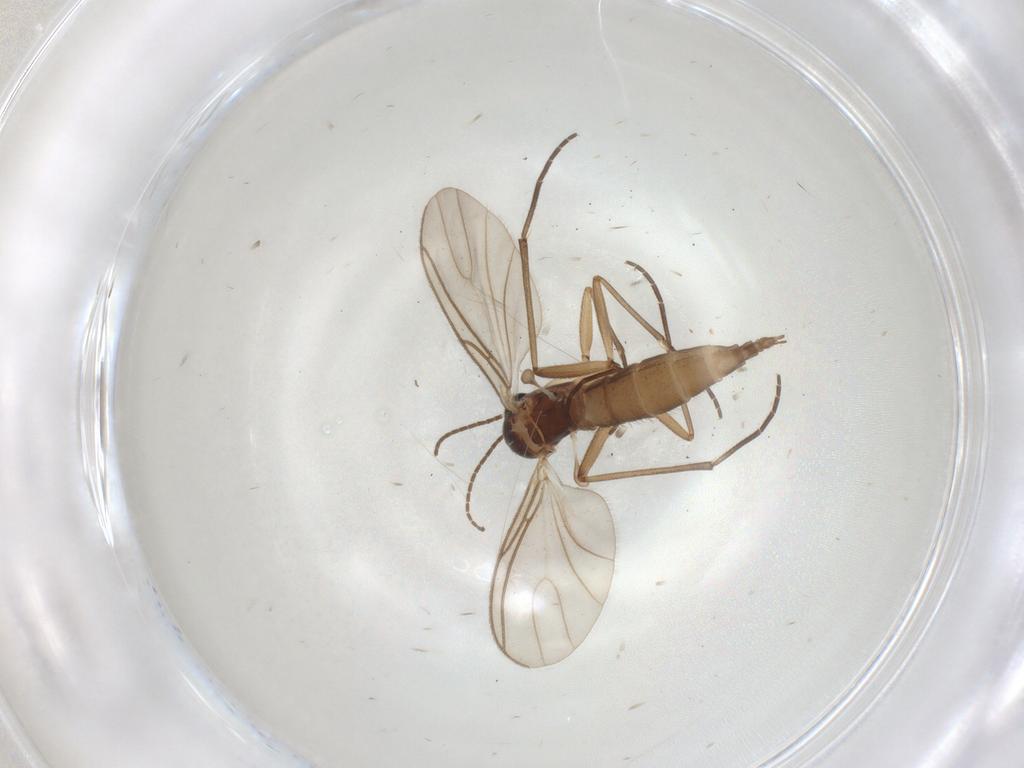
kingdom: Animalia
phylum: Arthropoda
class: Insecta
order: Diptera
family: Sciaridae
